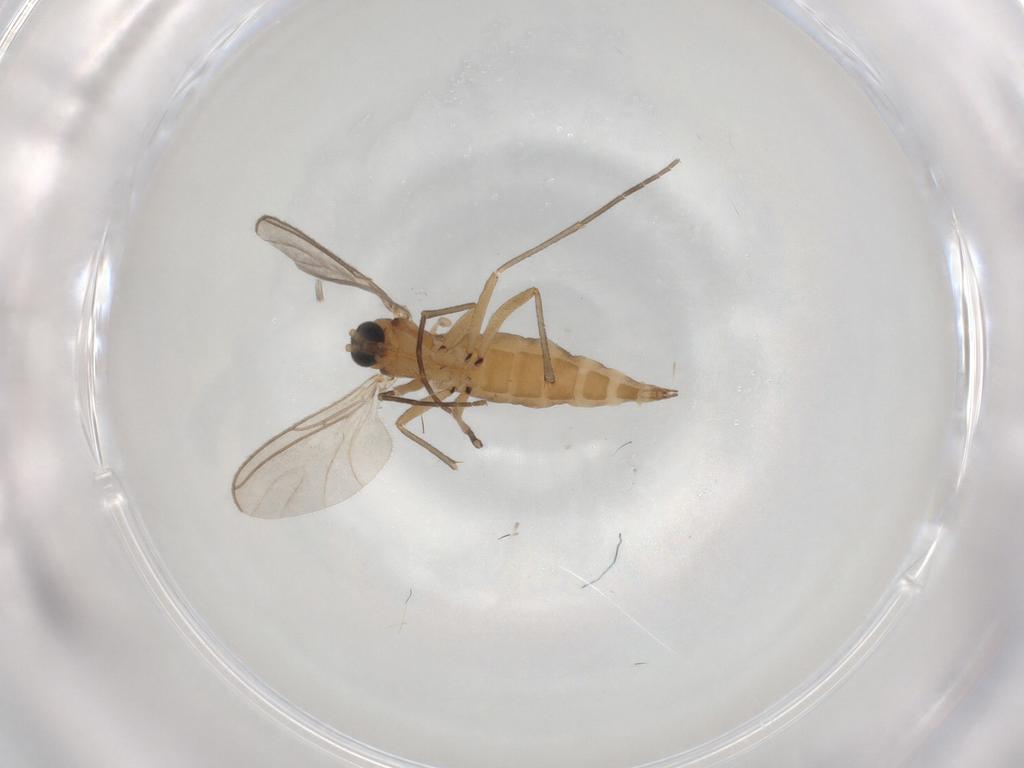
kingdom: Animalia
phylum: Arthropoda
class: Insecta
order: Diptera
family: Sciaridae
